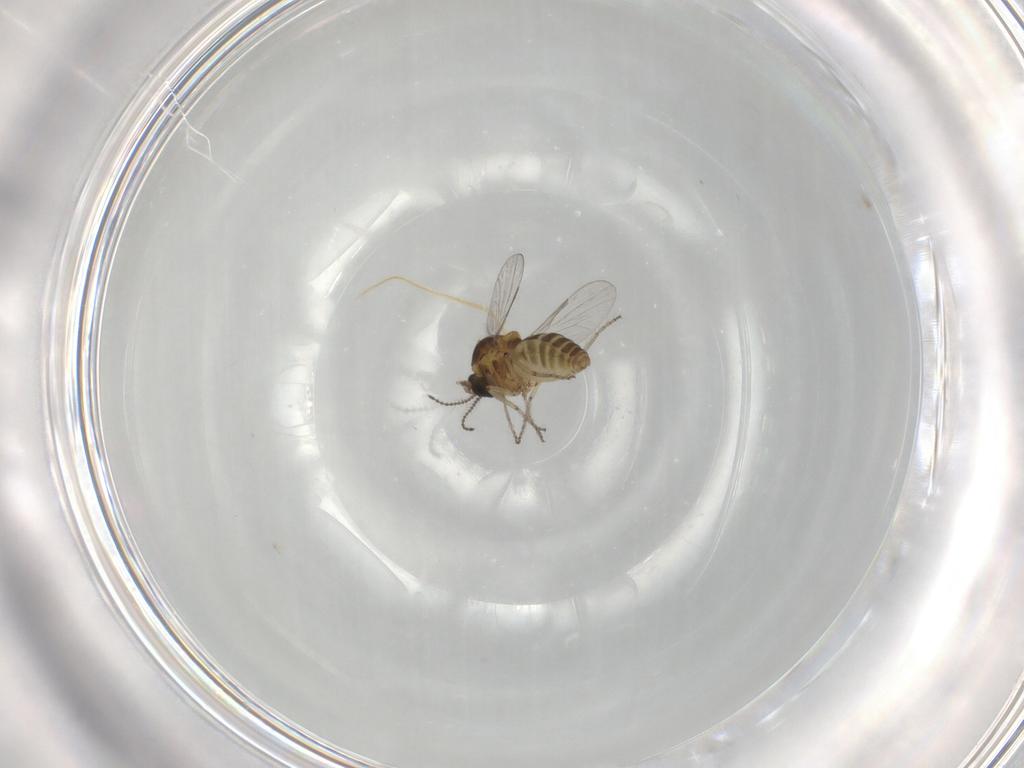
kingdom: Animalia
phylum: Arthropoda
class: Insecta
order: Diptera
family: Ceratopogonidae
